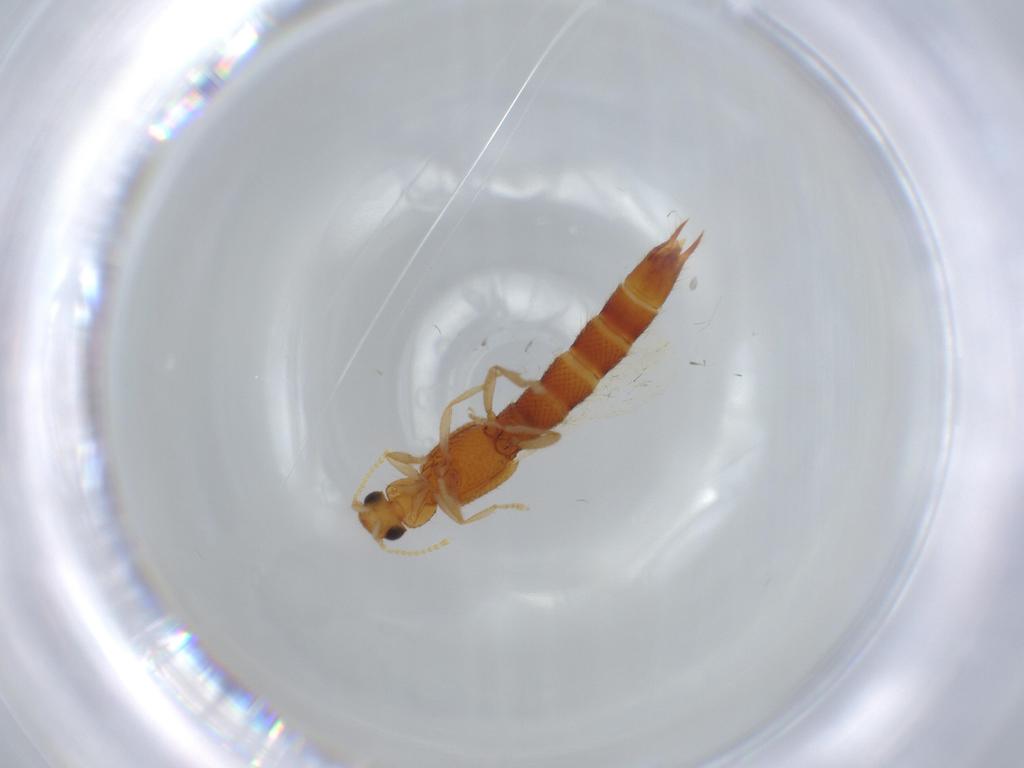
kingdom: Animalia
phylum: Arthropoda
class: Insecta
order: Coleoptera
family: Staphylinidae
